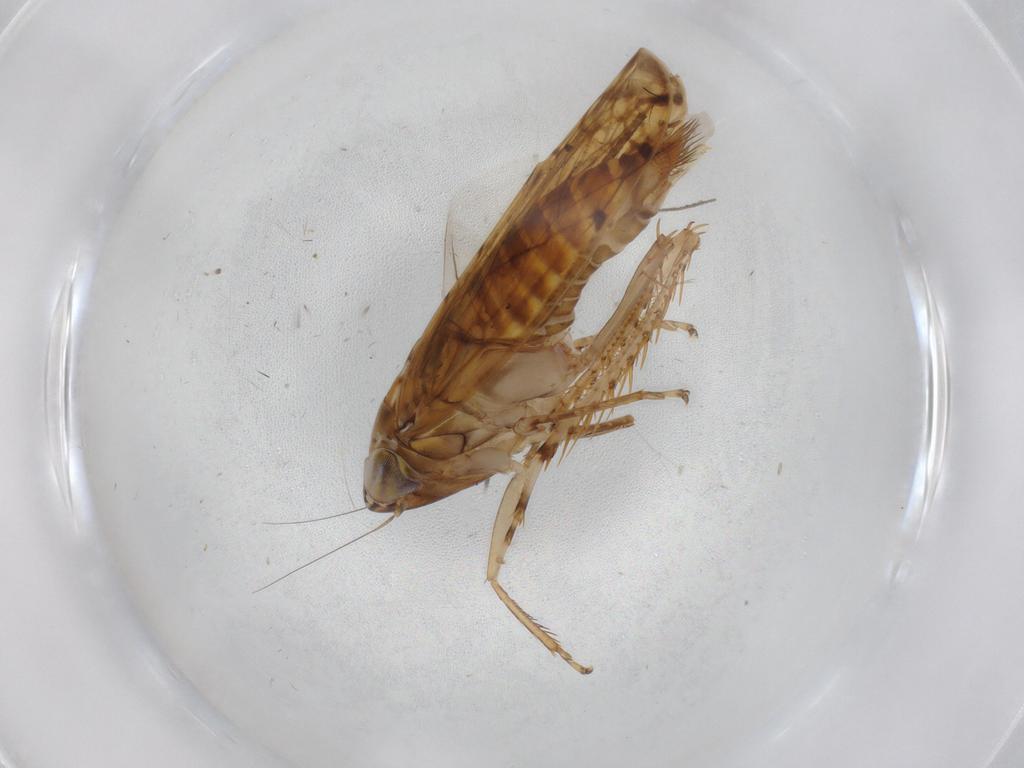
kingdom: Animalia
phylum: Arthropoda
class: Insecta
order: Hemiptera
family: Cicadellidae
